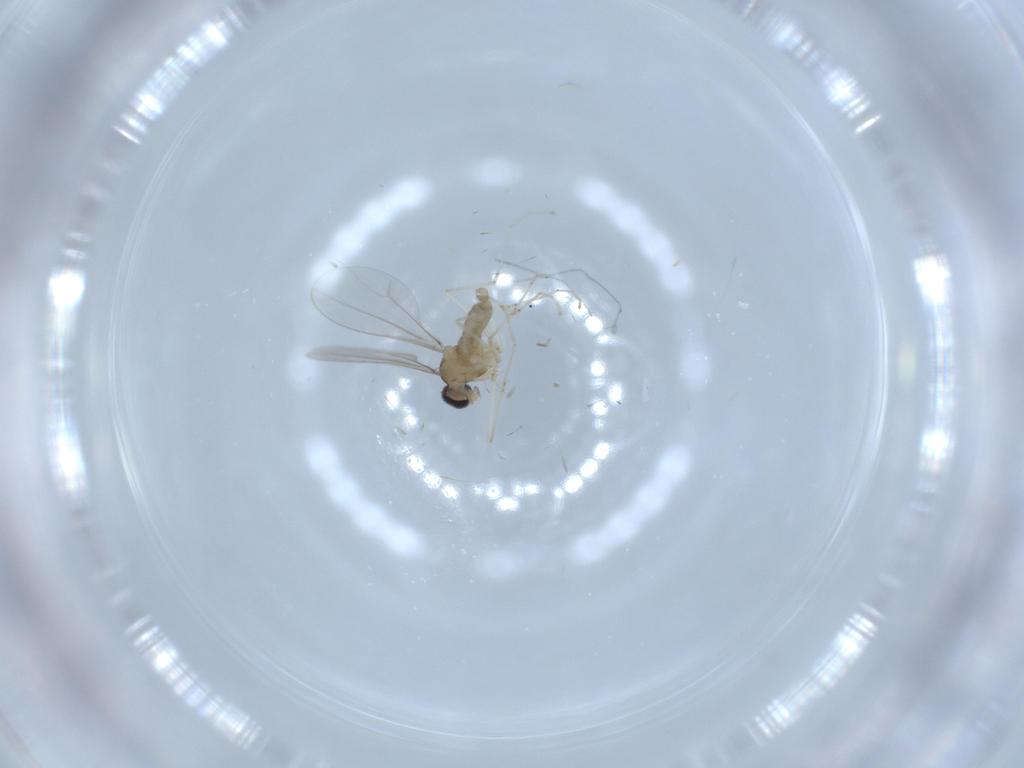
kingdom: Animalia
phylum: Arthropoda
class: Insecta
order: Diptera
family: Cecidomyiidae
